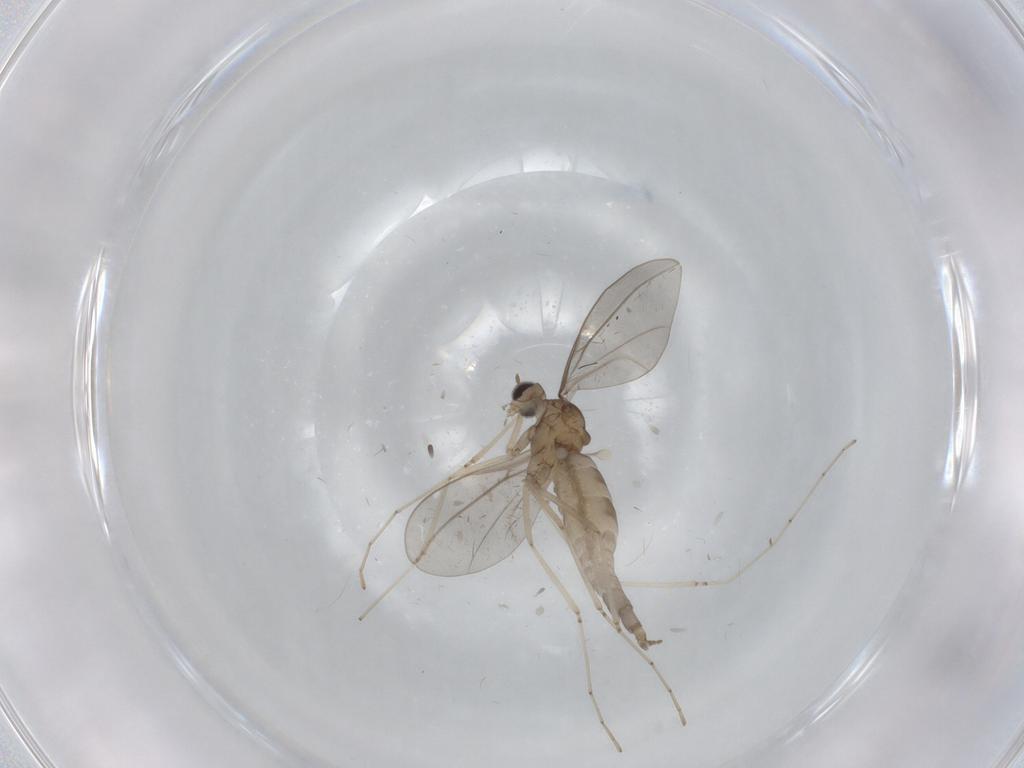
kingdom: Animalia
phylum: Arthropoda
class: Insecta
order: Diptera
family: Cecidomyiidae
